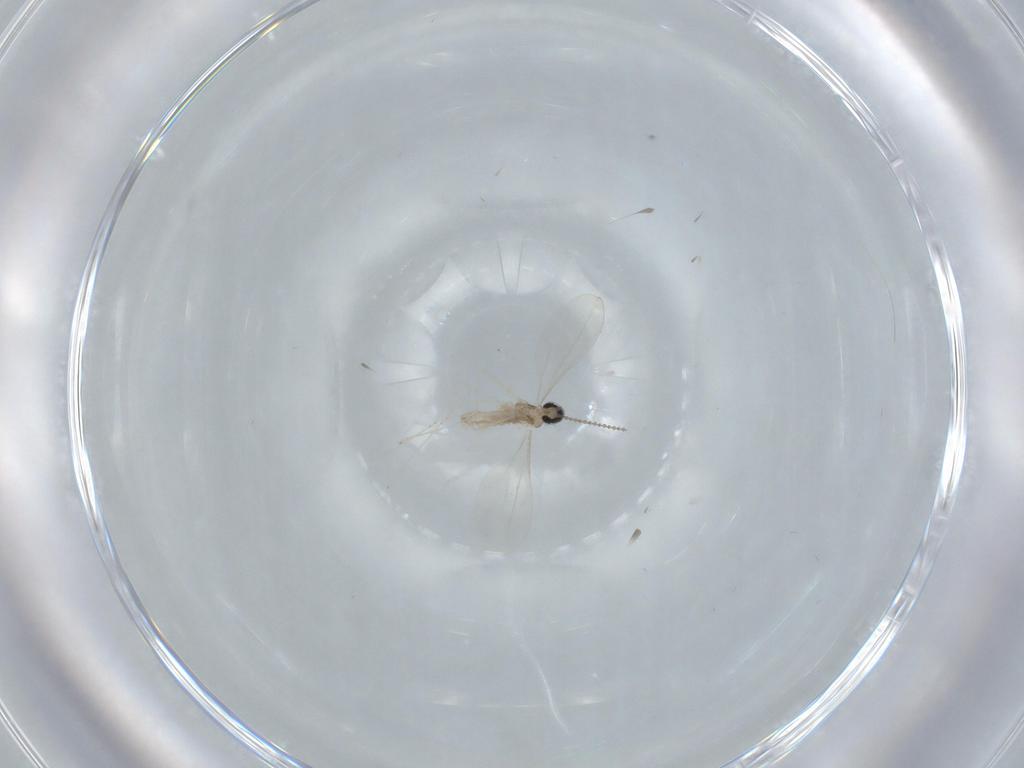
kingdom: Animalia
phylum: Arthropoda
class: Insecta
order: Diptera
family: Cecidomyiidae
